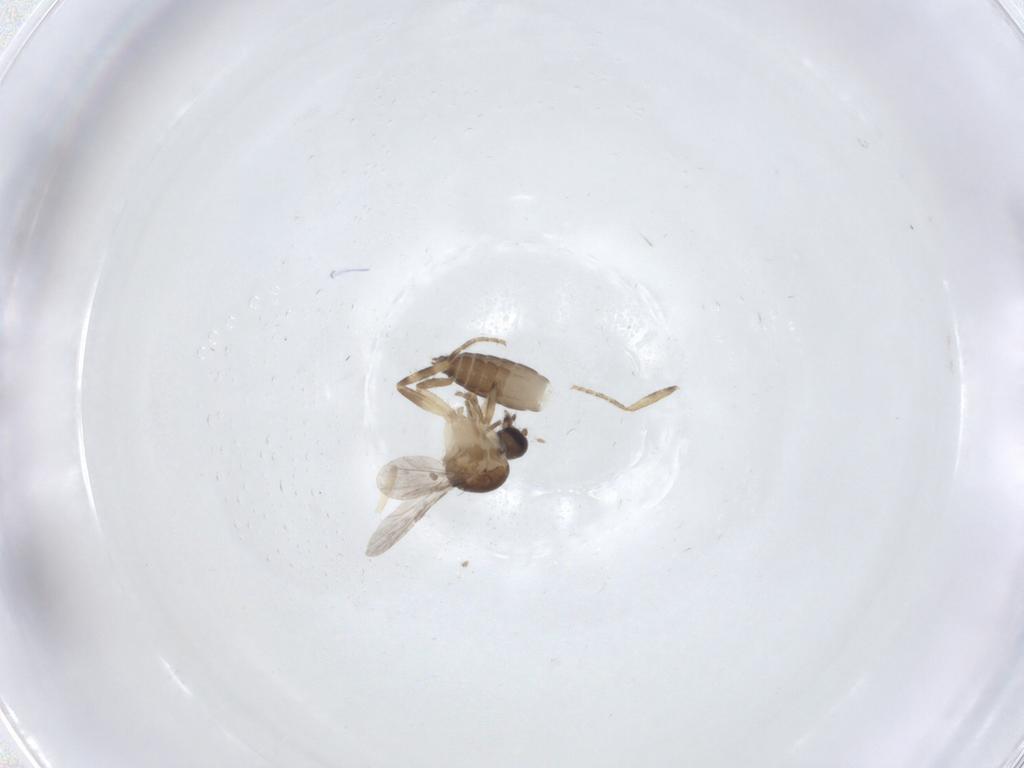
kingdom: Animalia
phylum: Arthropoda
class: Insecta
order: Diptera
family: Ceratopogonidae
